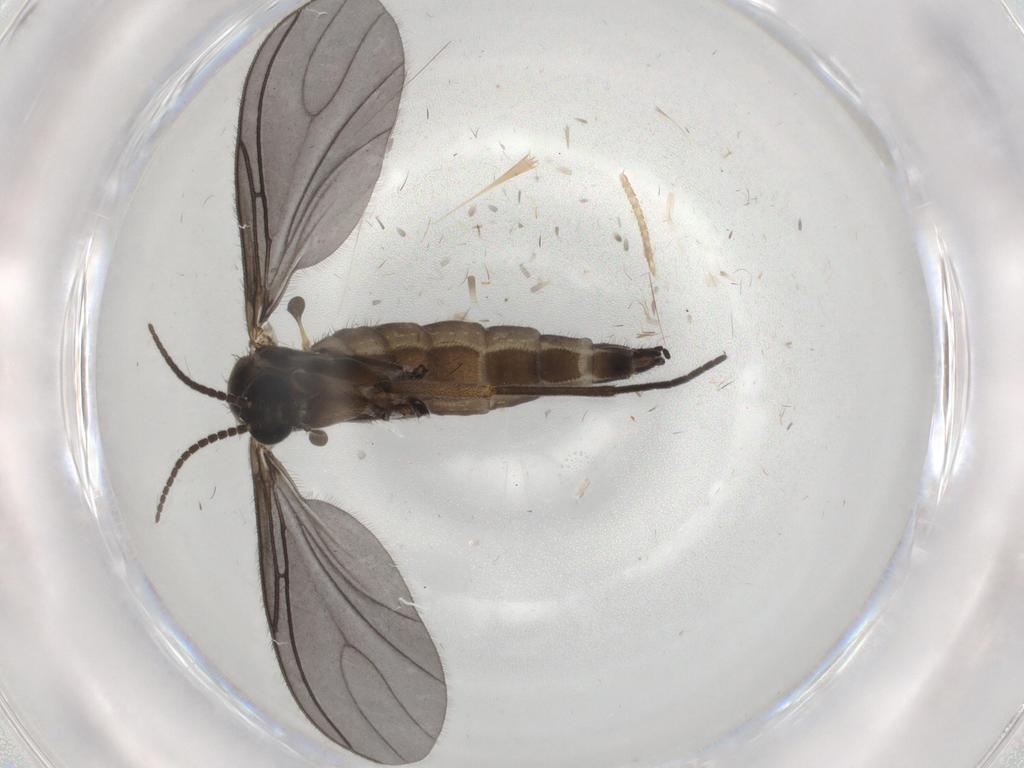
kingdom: Animalia
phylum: Arthropoda
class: Insecta
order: Diptera
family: Sciaridae
